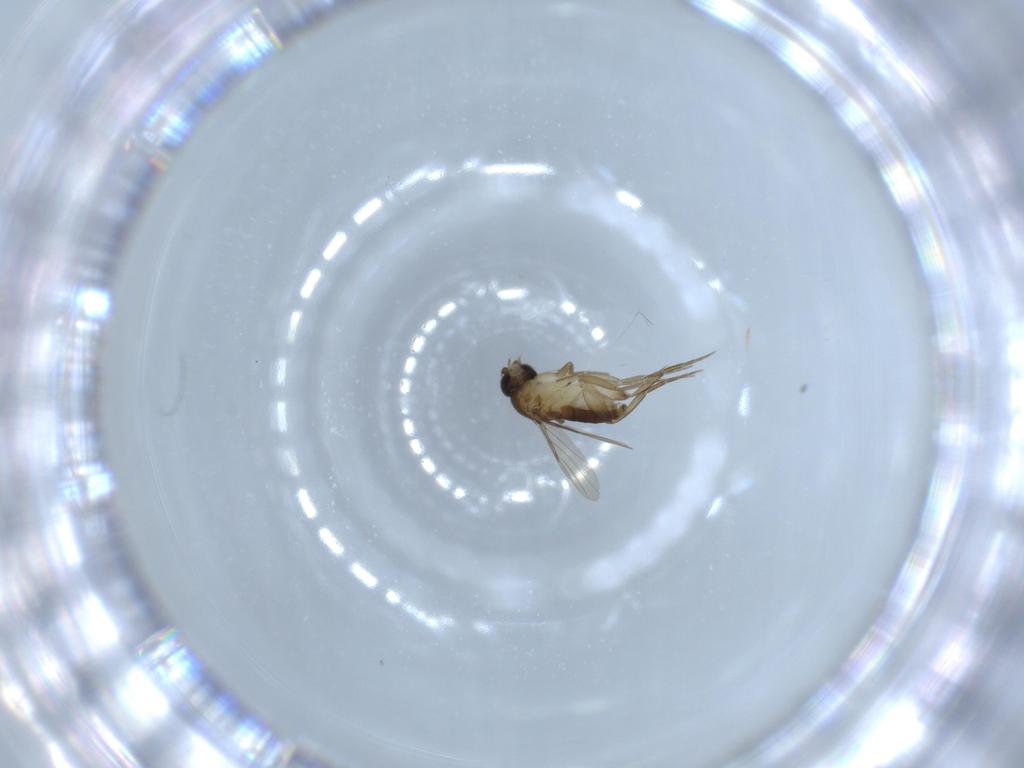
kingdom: Animalia
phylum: Arthropoda
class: Insecta
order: Diptera
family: Phoridae
